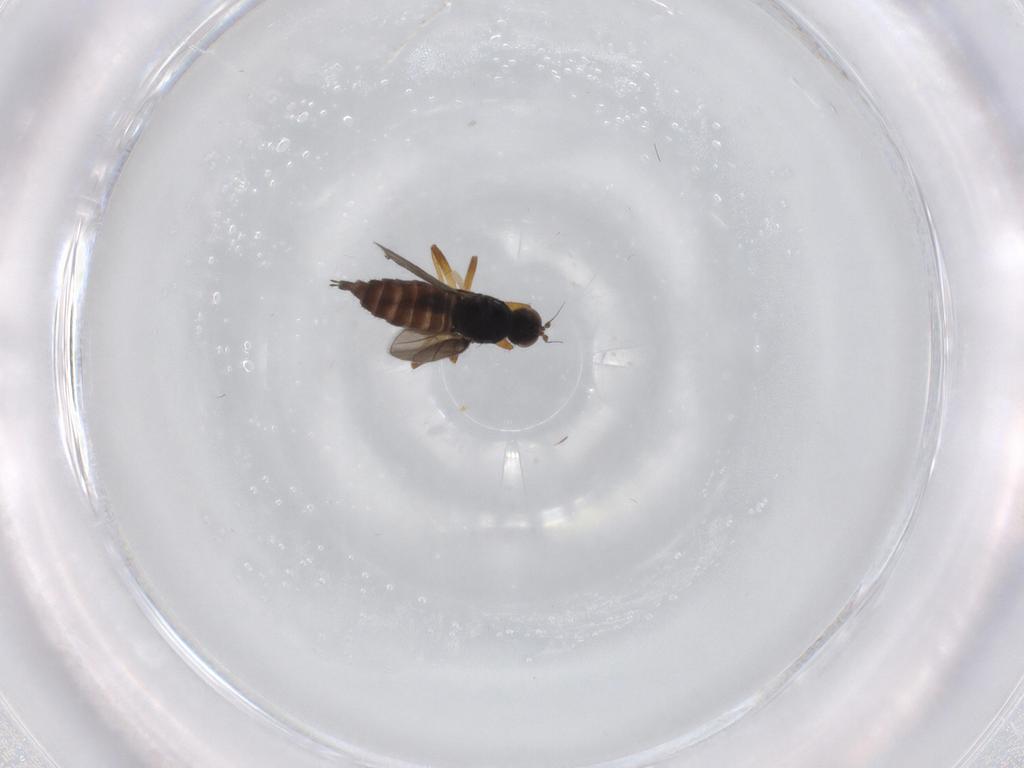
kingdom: Animalia
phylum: Arthropoda
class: Insecta
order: Diptera
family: Hybotidae
